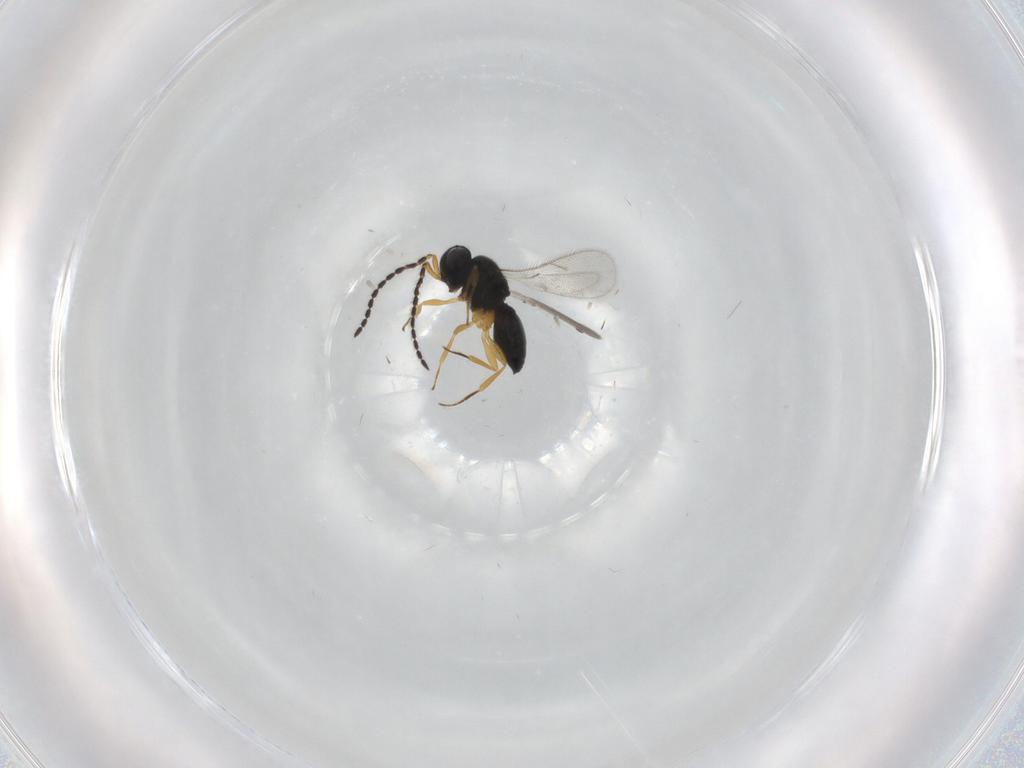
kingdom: Animalia
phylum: Arthropoda
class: Insecta
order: Hymenoptera
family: Scelionidae
